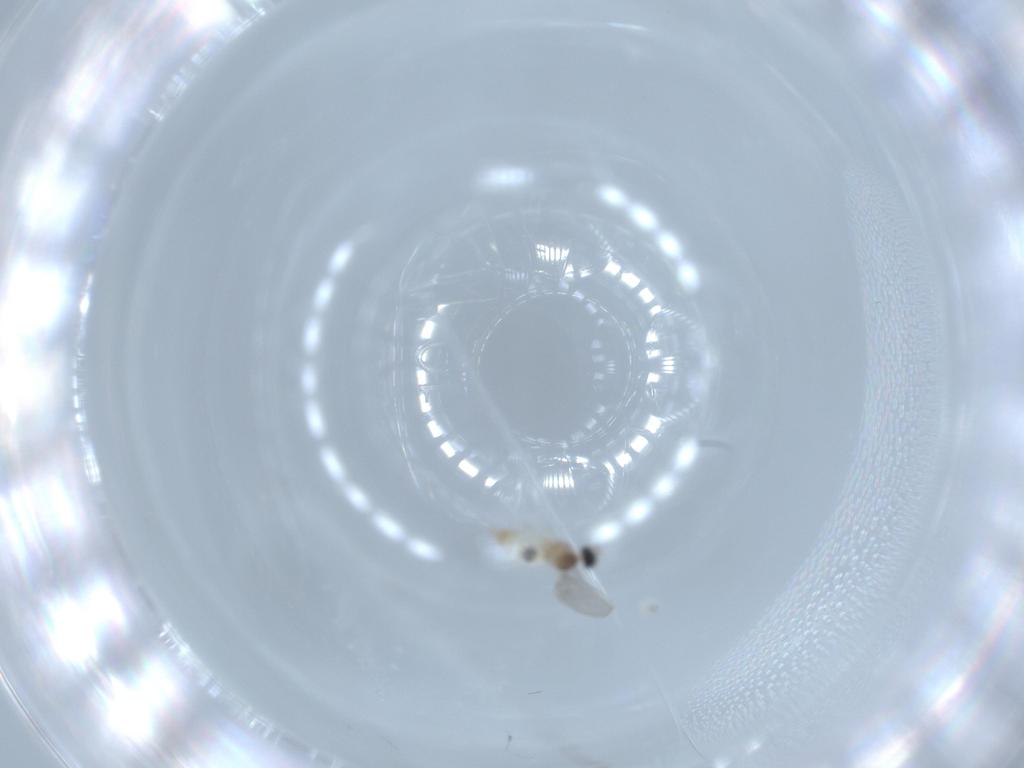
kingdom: Animalia
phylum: Arthropoda
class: Insecta
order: Diptera
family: Cecidomyiidae
